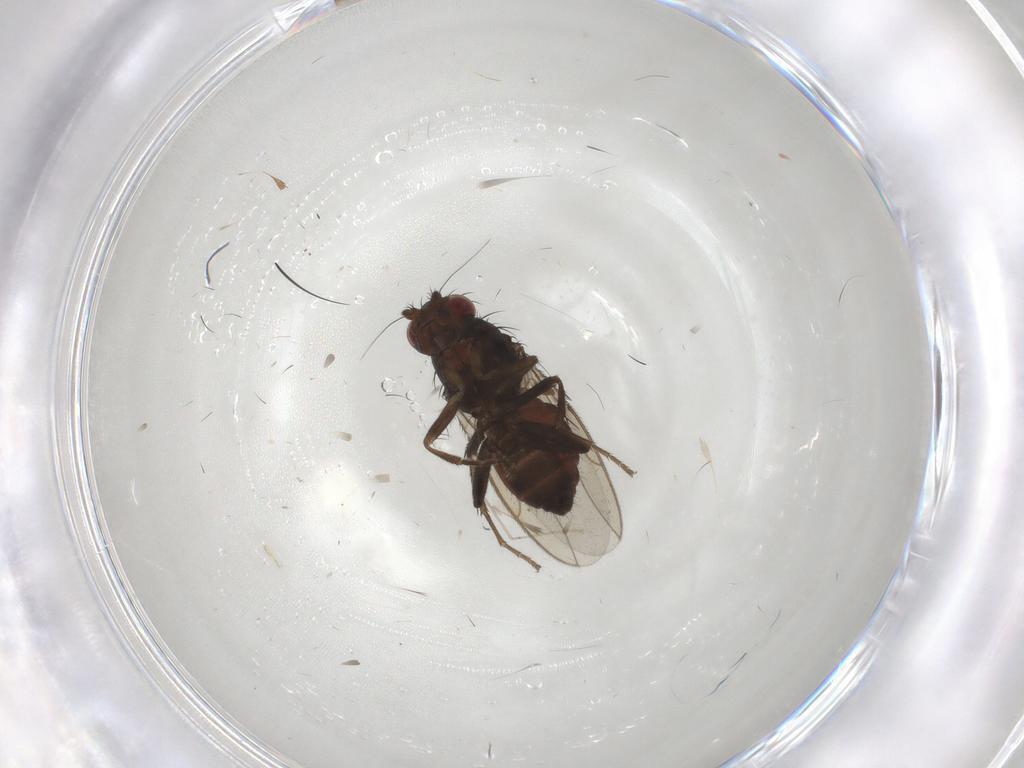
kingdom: Animalia
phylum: Arthropoda
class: Insecta
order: Diptera
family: Sphaeroceridae
